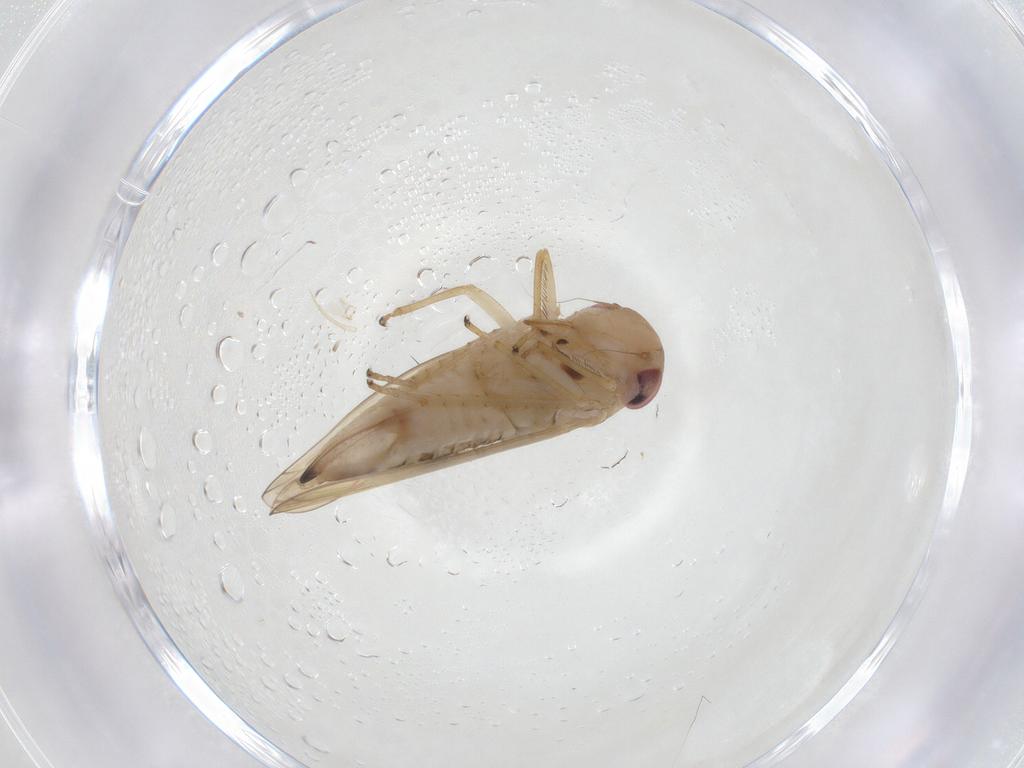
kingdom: Animalia
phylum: Arthropoda
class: Insecta
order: Hemiptera
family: Cicadellidae
